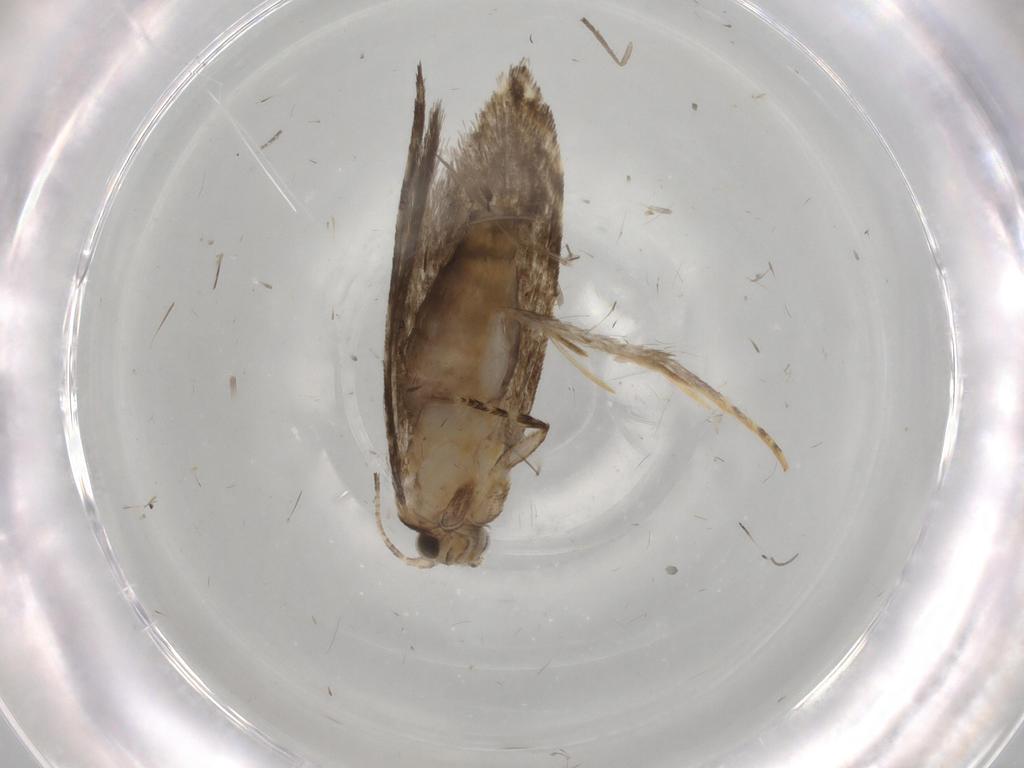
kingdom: Animalia
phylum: Arthropoda
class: Insecta
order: Lepidoptera
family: Tineidae
